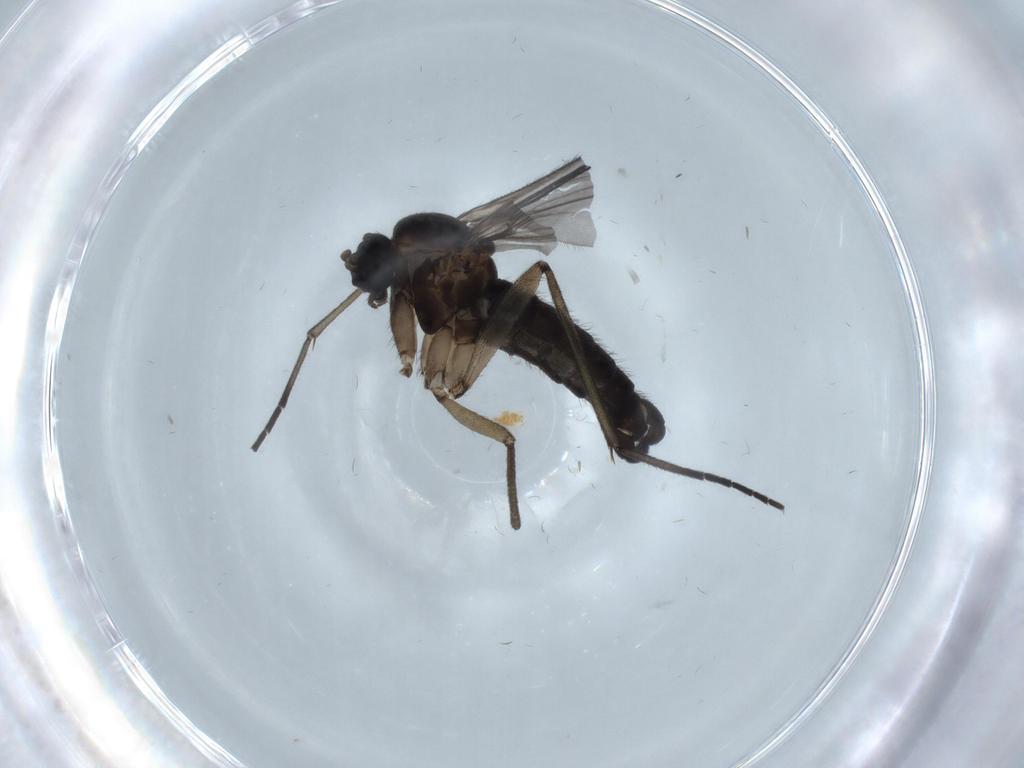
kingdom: Animalia
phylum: Arthropoda
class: Insecta
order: Diptera
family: Sciaridae
